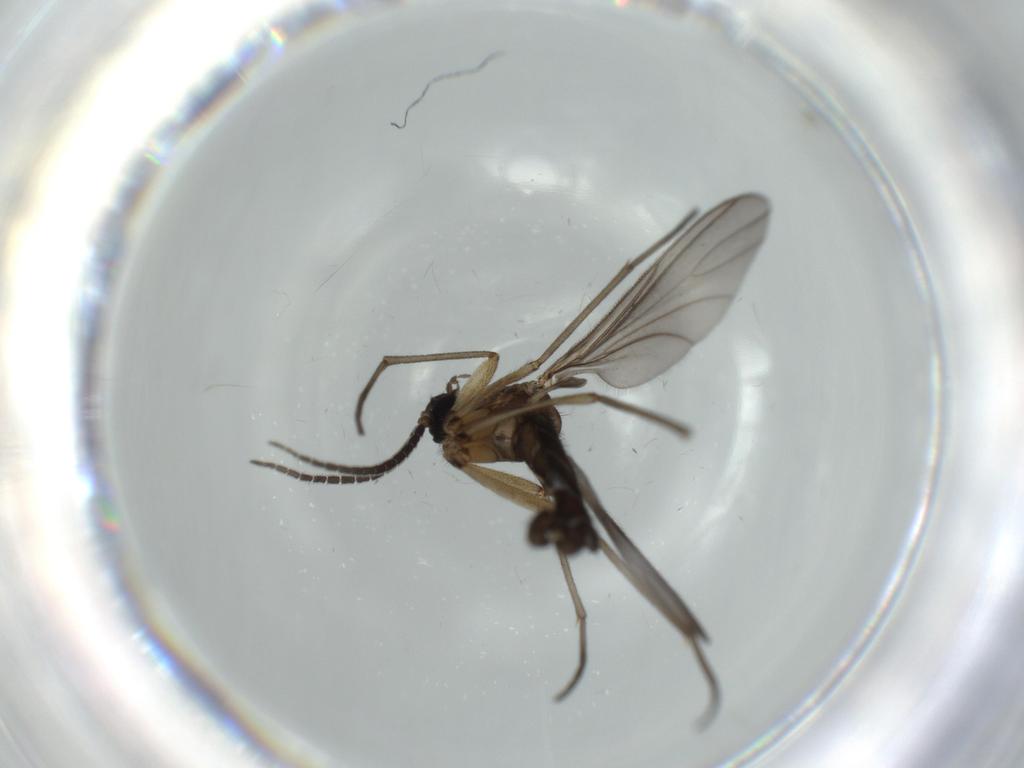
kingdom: Animalia
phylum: Arthropoda
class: Insecta
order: Diptera
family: Sciaridae
